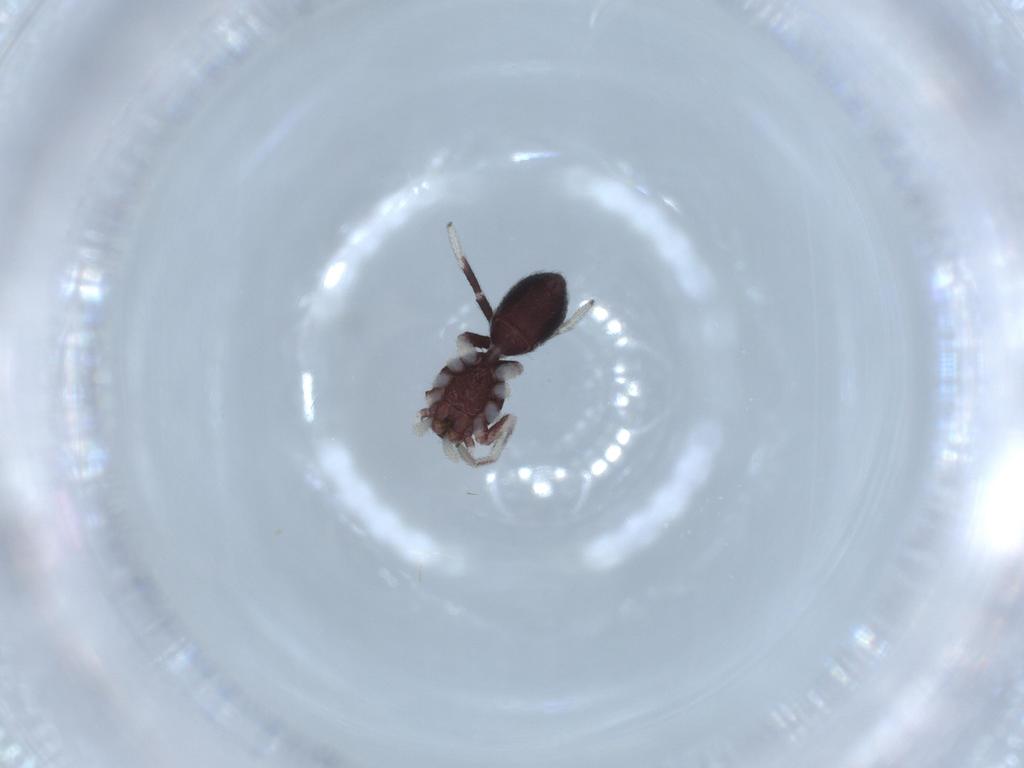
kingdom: Animalia
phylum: Arthropoda
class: Arachnida
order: Araneae
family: Corinnidae
